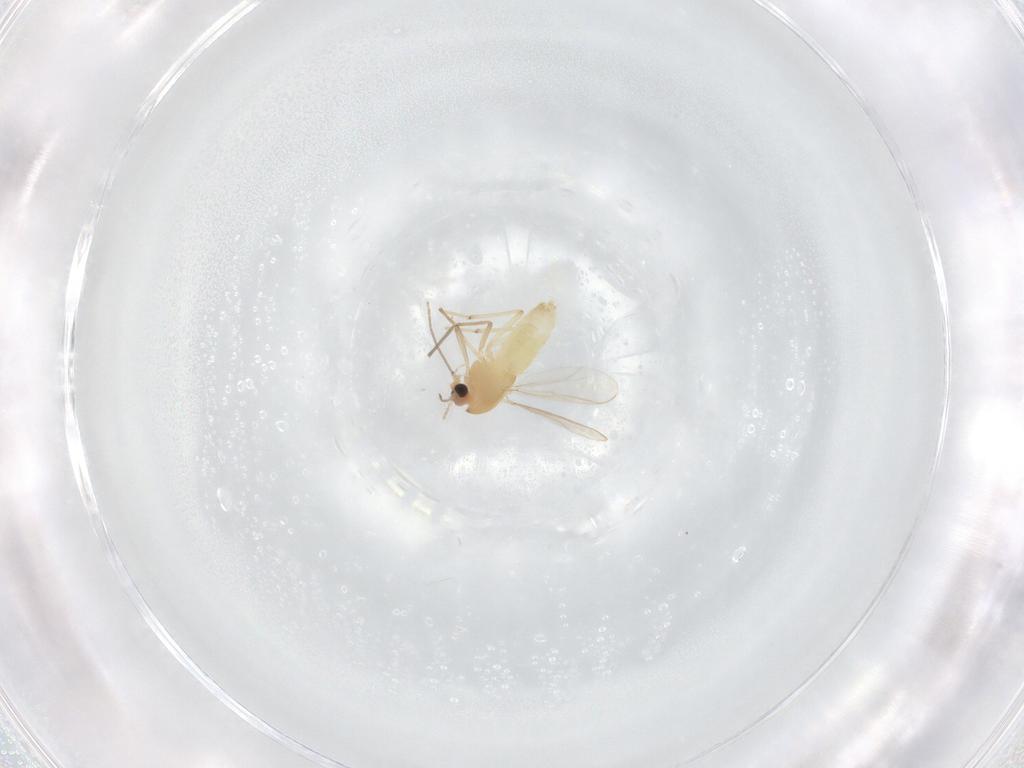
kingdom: Animalia
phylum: Arthropoda
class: Insecta
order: Diptera
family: Chironomidae
